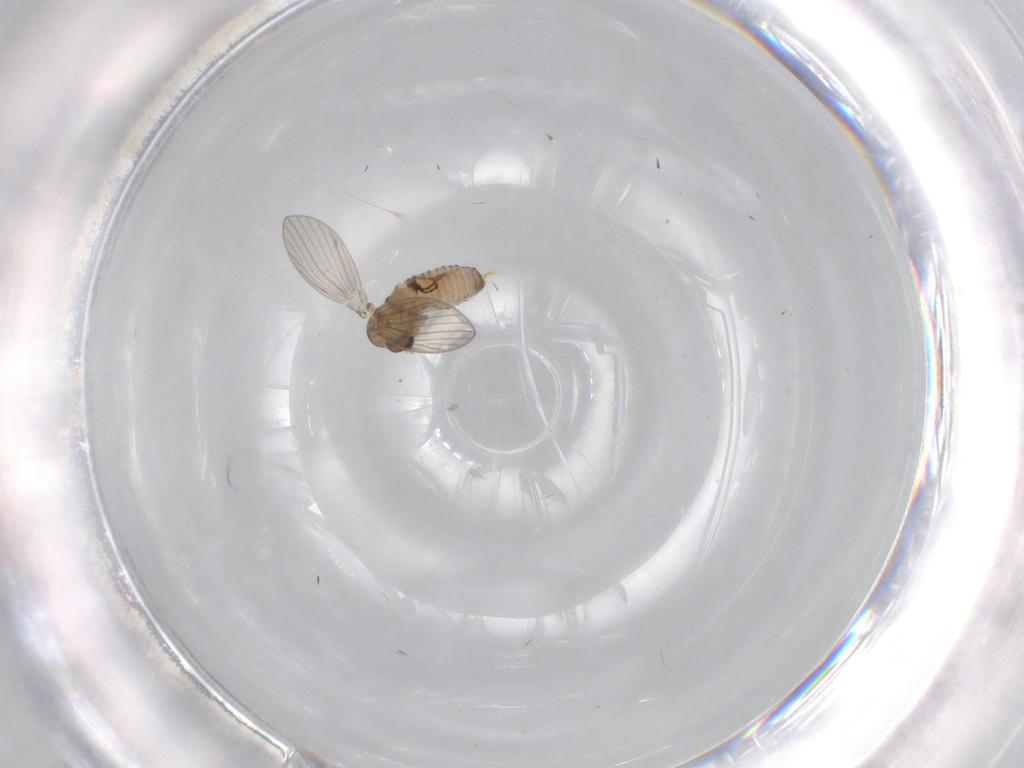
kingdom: Animalia
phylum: Arthropoda
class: Insecta
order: Diptera
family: Psychodidae
